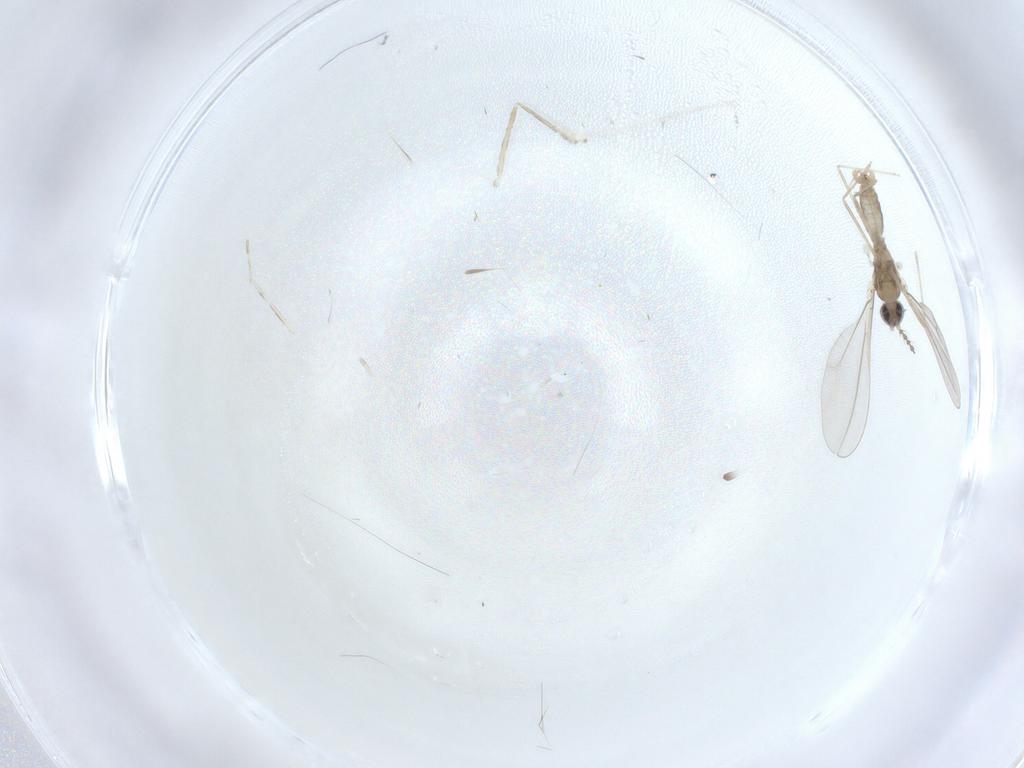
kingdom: Animalia
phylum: Arthropoda
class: Insecta
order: Diptera
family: Cecidomyiidae
